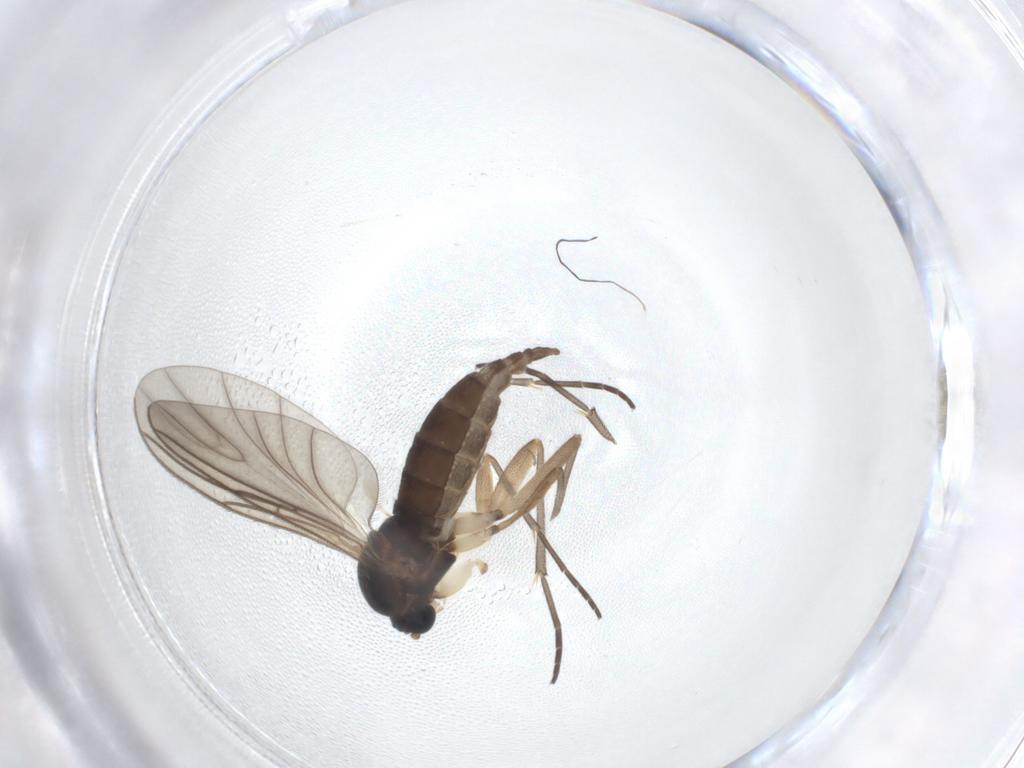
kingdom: Animalia
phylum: Arthropoda
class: Insecta
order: Diptera
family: Sciaridae
